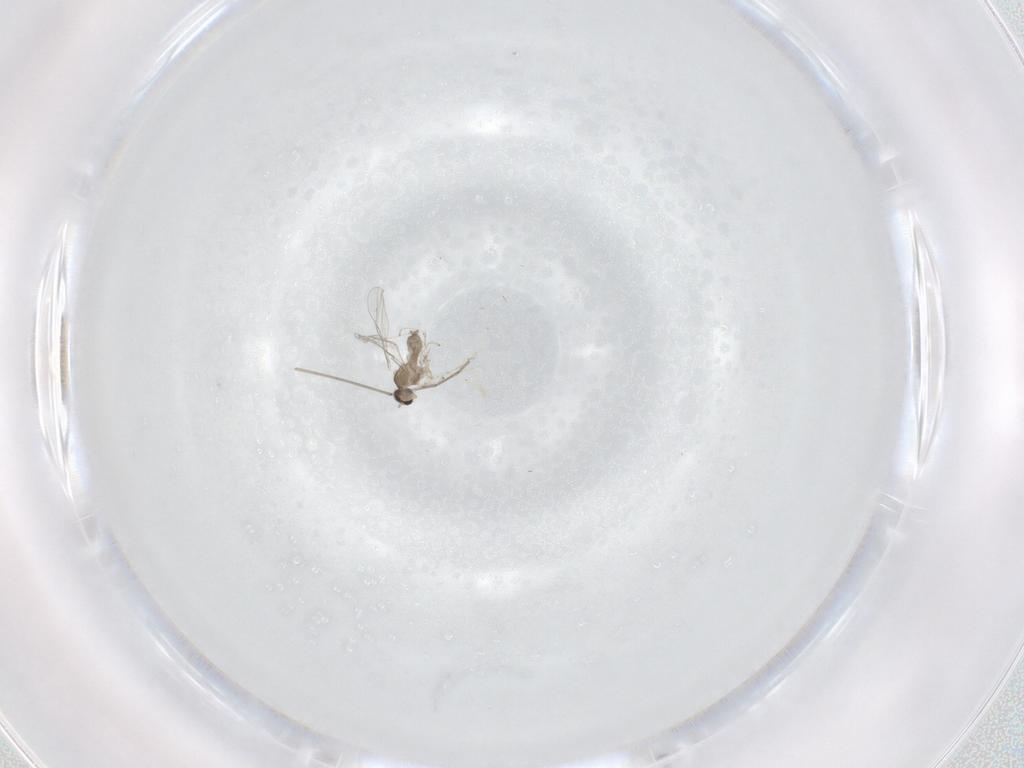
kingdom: Animalia
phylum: Arthropoda
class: Insecta
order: Diptera
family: Cecidomyiidae
